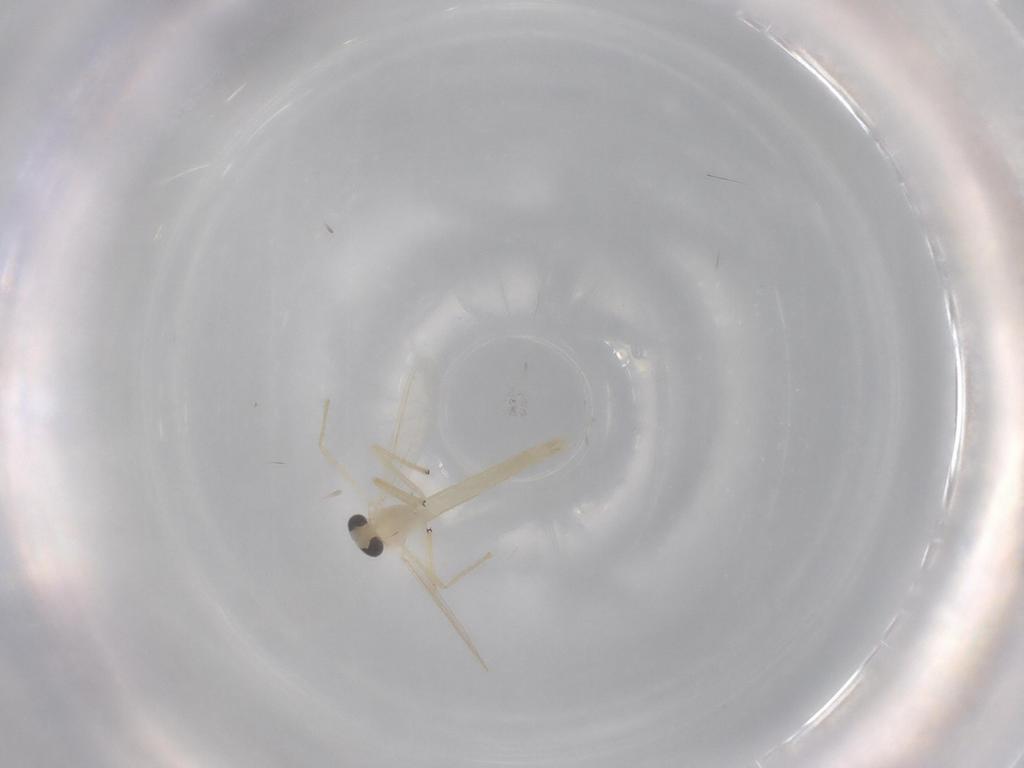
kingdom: Animalia
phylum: Arthropoda
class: Insecta
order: Diptera
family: Chironomidae
